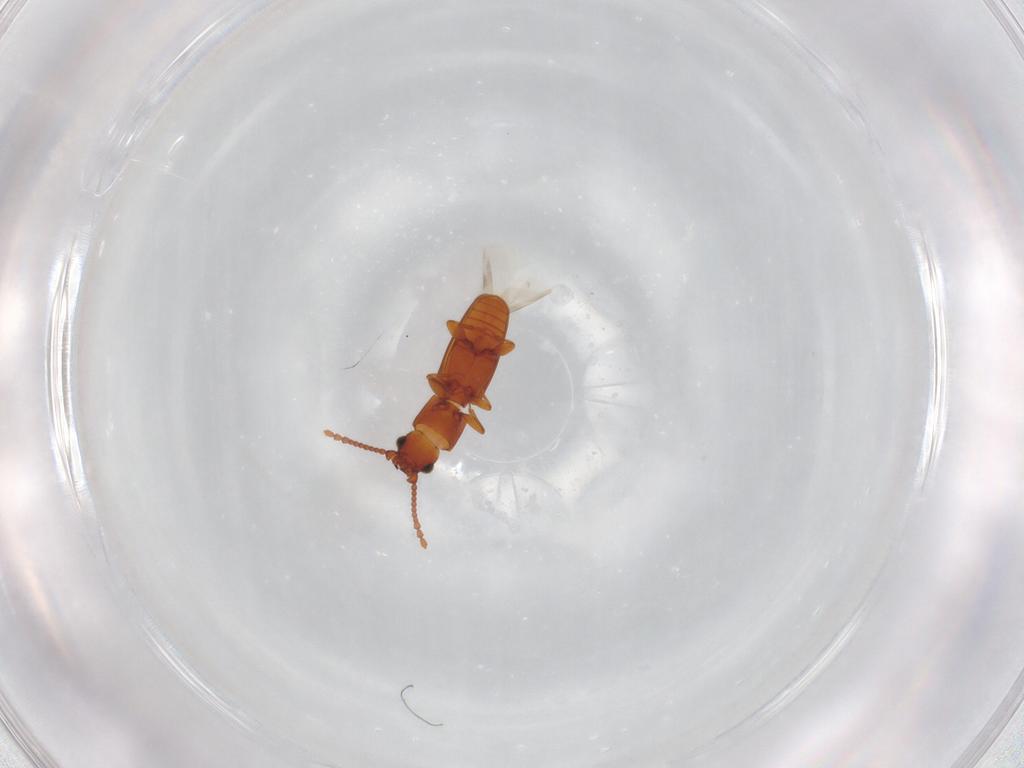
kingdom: Animalia
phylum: Arthropoda
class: Insecta
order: Coleoptera
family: Laemophloeidae
